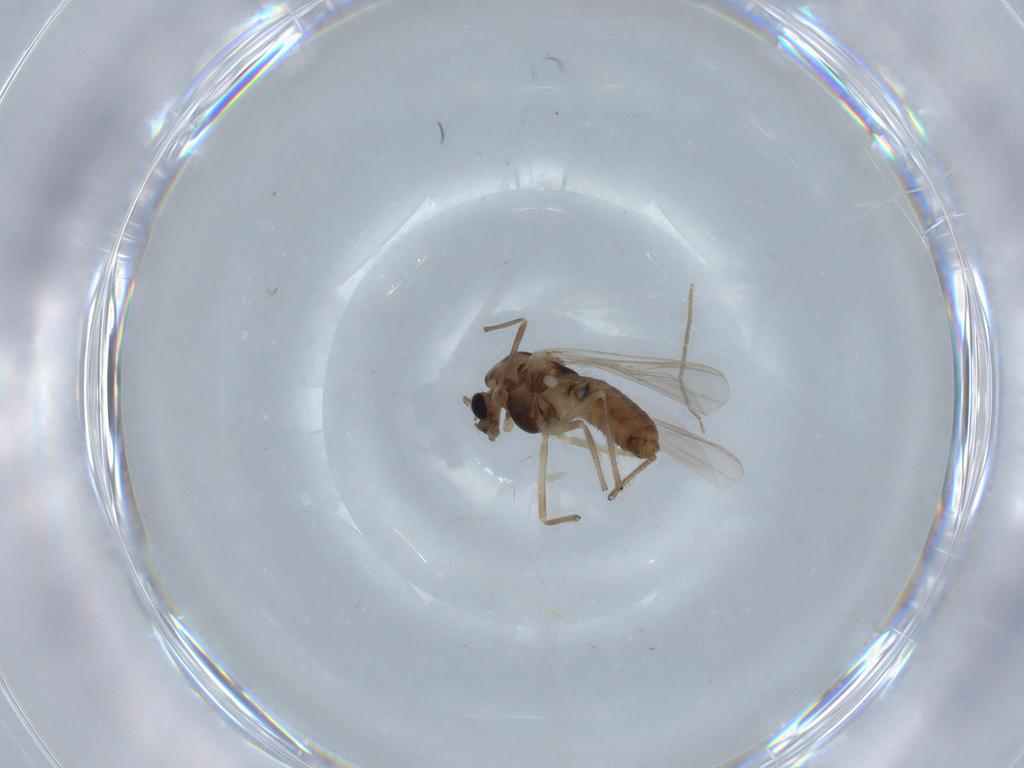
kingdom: Animalia
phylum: Arthropoda
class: Insecta
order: Diptera
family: Chironomidae
